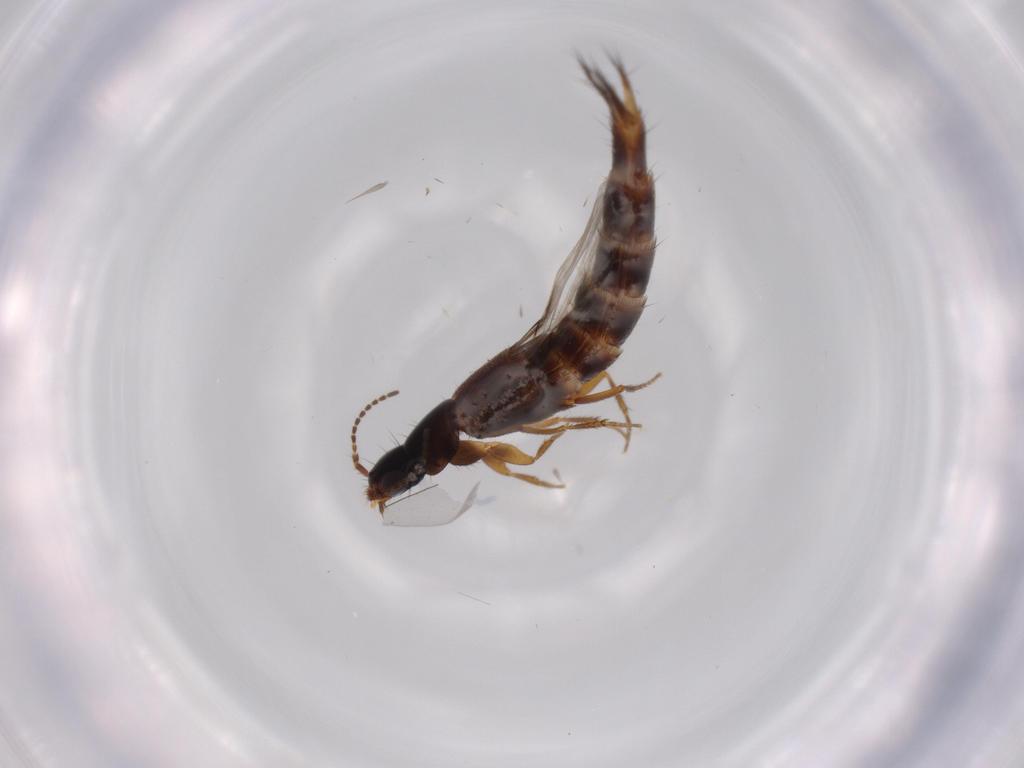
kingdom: Animalia
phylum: Arthropoda
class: Insecta
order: Coleoptera
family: Staphylinidae
